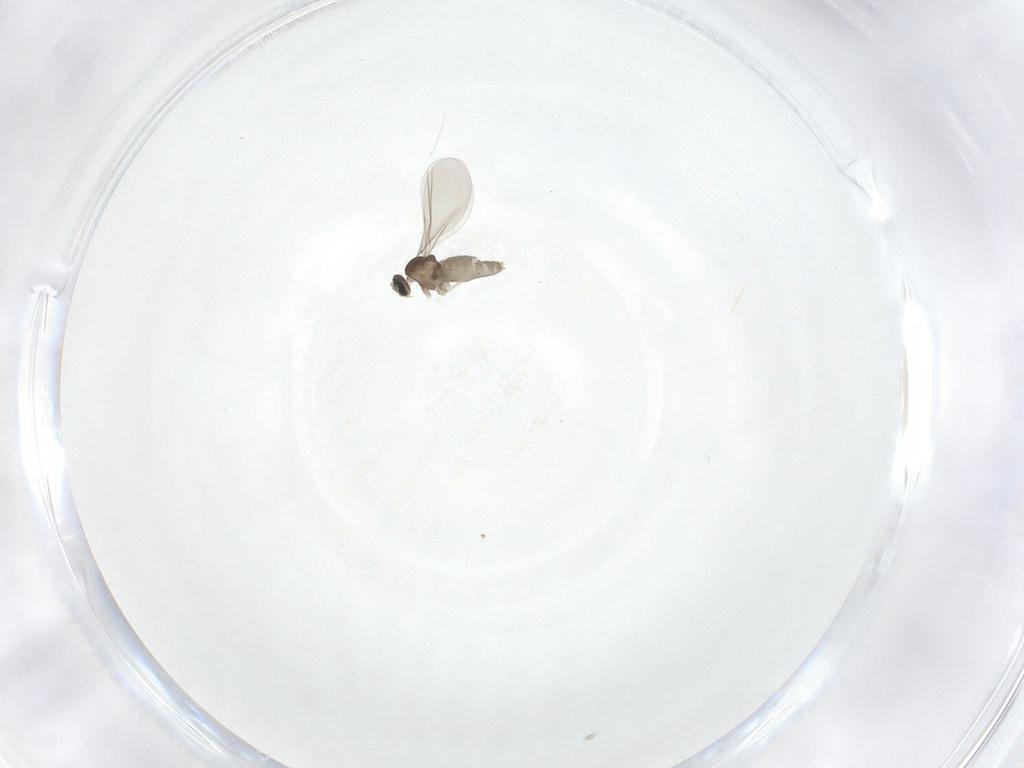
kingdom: Animalia
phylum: Arthropoda
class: Insecta
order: Diptera
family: Cecidomyiidae
